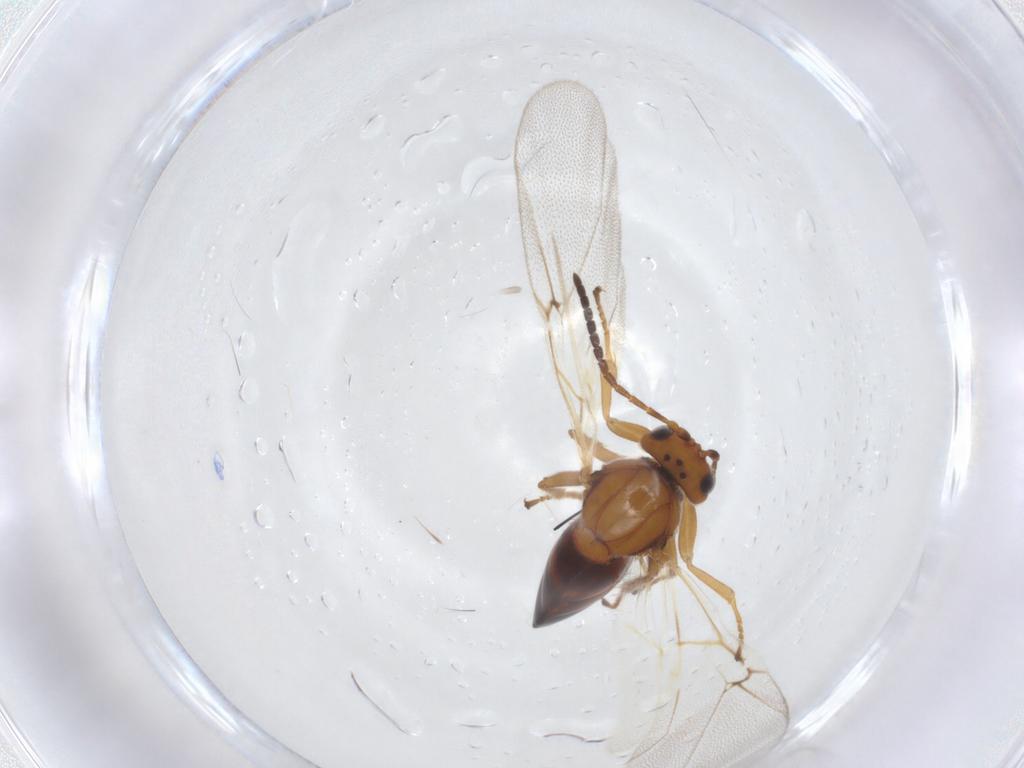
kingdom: Animalia
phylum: Arthropoda
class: Insecta
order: Hymenoptera
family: Cynipidae
